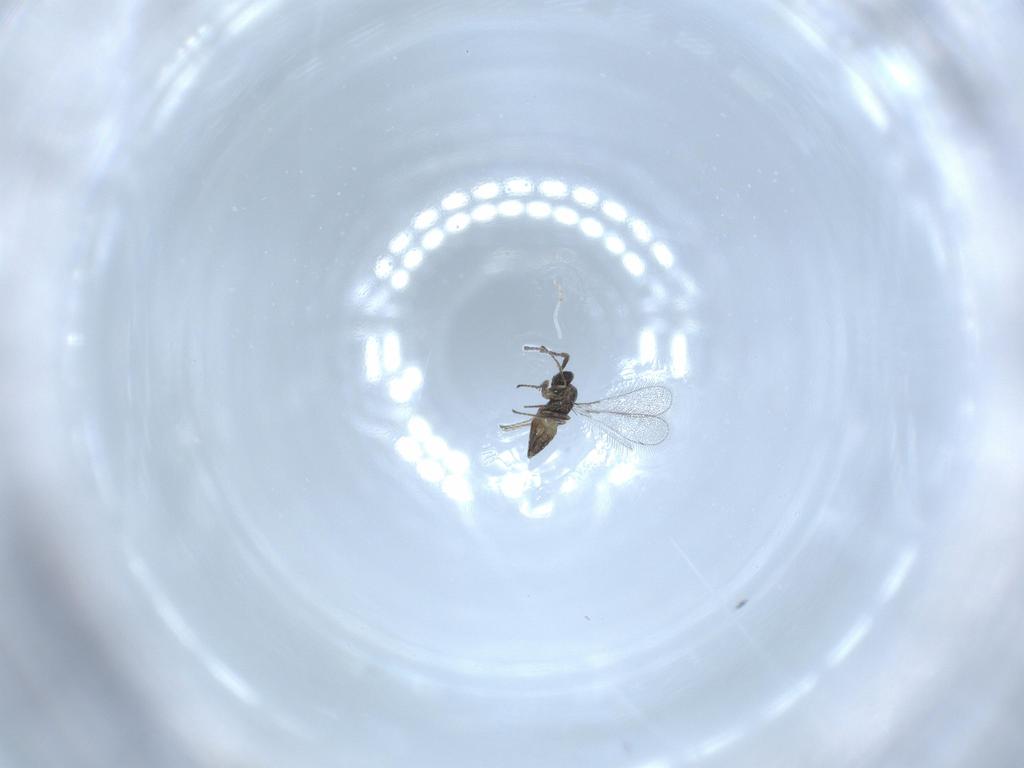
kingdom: Animalia
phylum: Arthropoda
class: Insecta
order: Hymenoptera
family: Mymaridae
